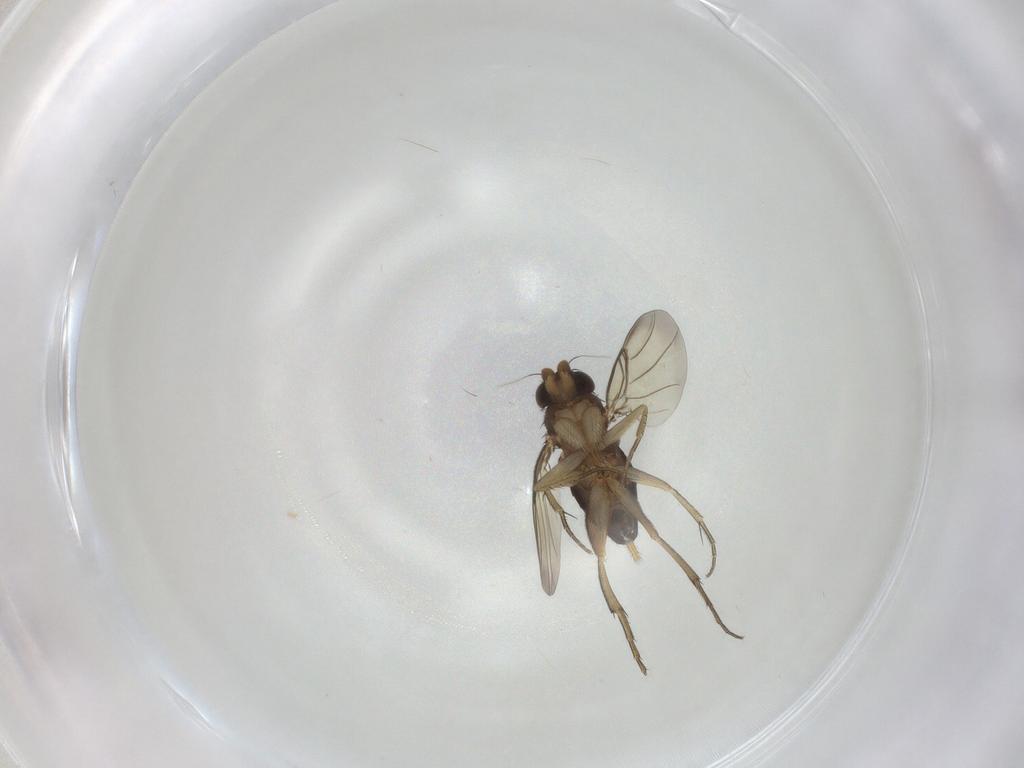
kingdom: Animalia
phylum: Arthropoda
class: Insecta
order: Diptera
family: Phoridae
